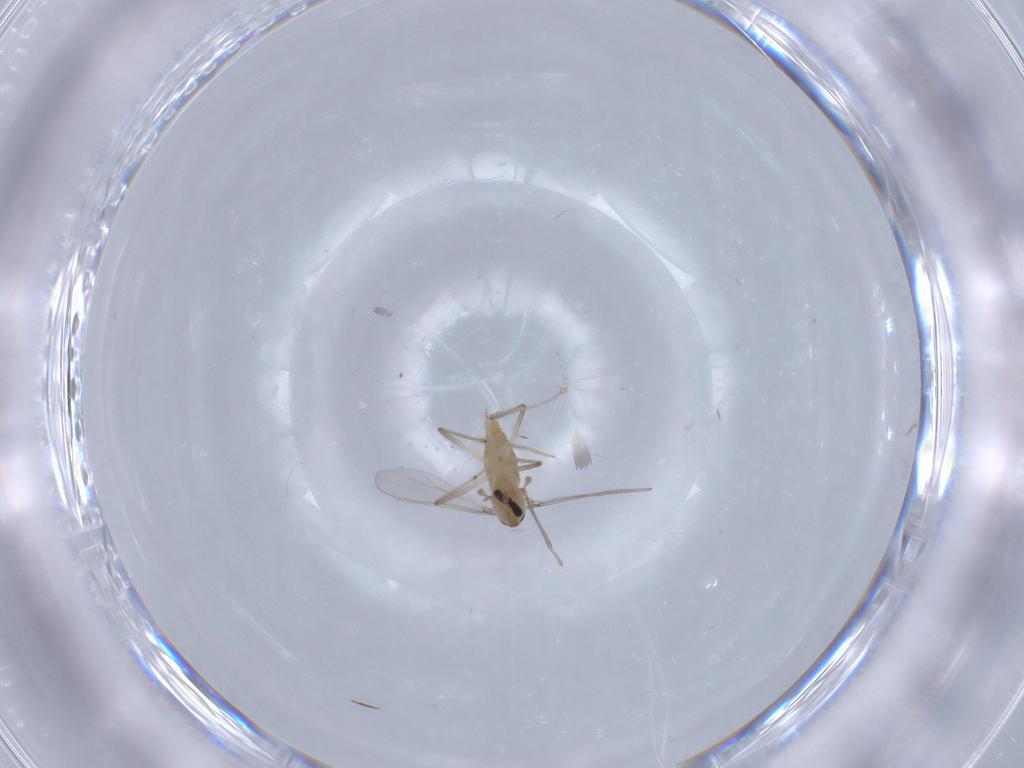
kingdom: Animalia
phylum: Arthropoda
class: Insecta
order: Diptera
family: Chironomidae
